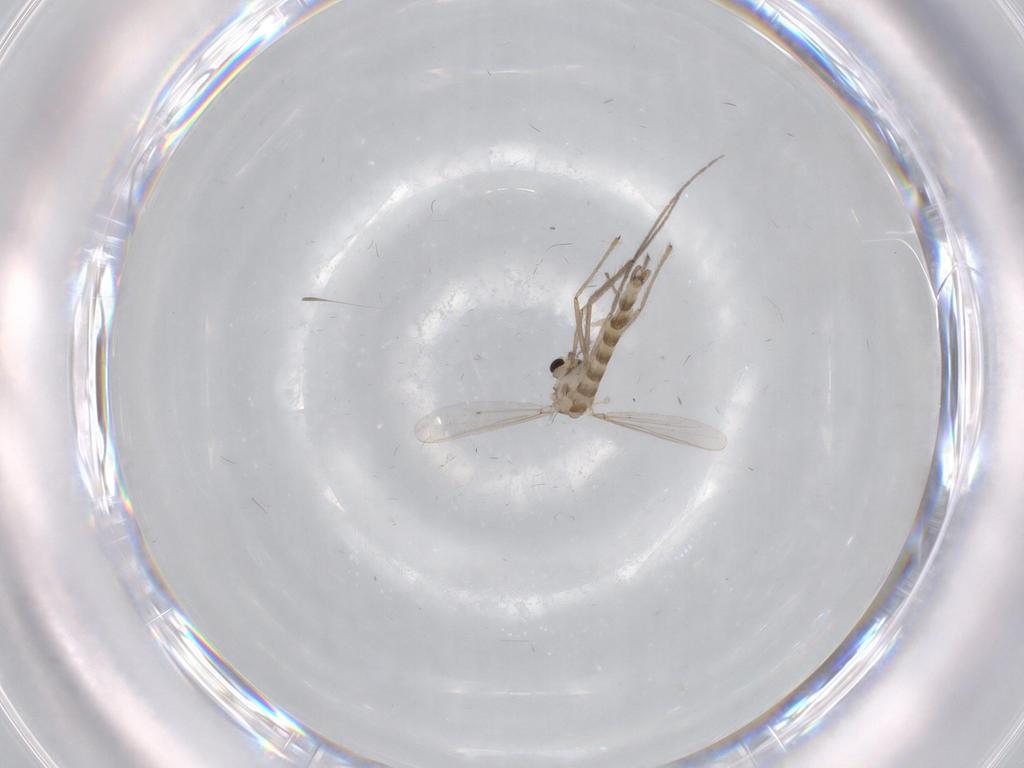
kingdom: Animalia
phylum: Arthropoda
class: Insecta
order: Diptera
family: Chironomidae
